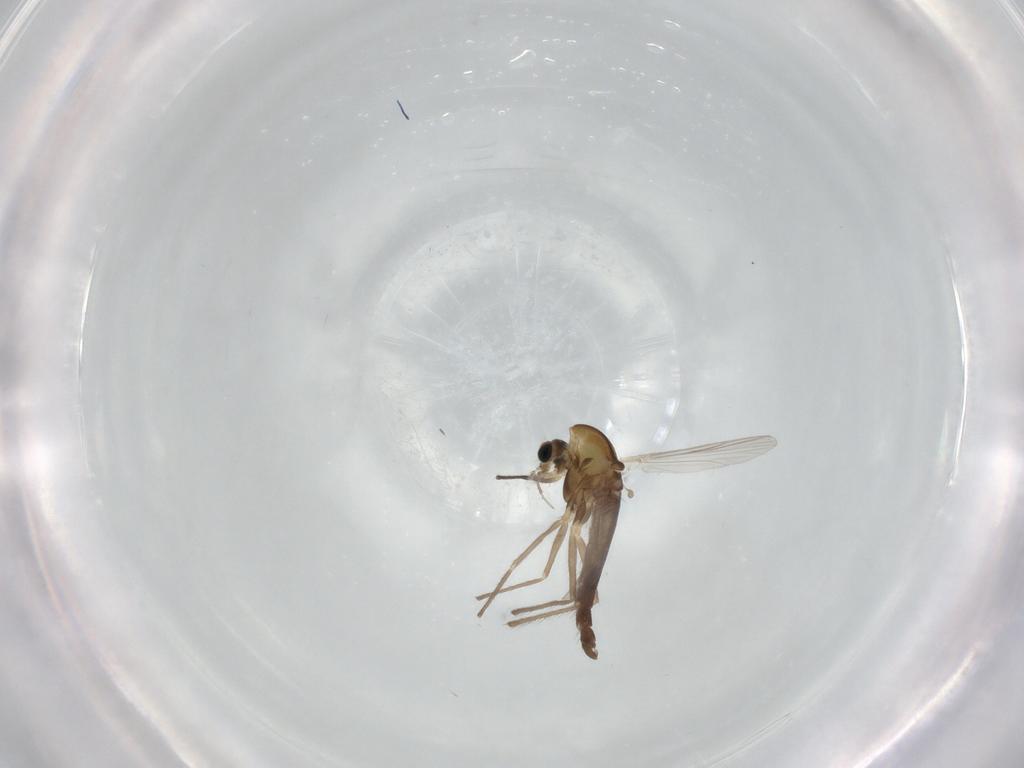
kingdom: Animalia
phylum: Arthropoda
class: Insecta
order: Diptera
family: Chironomidae
